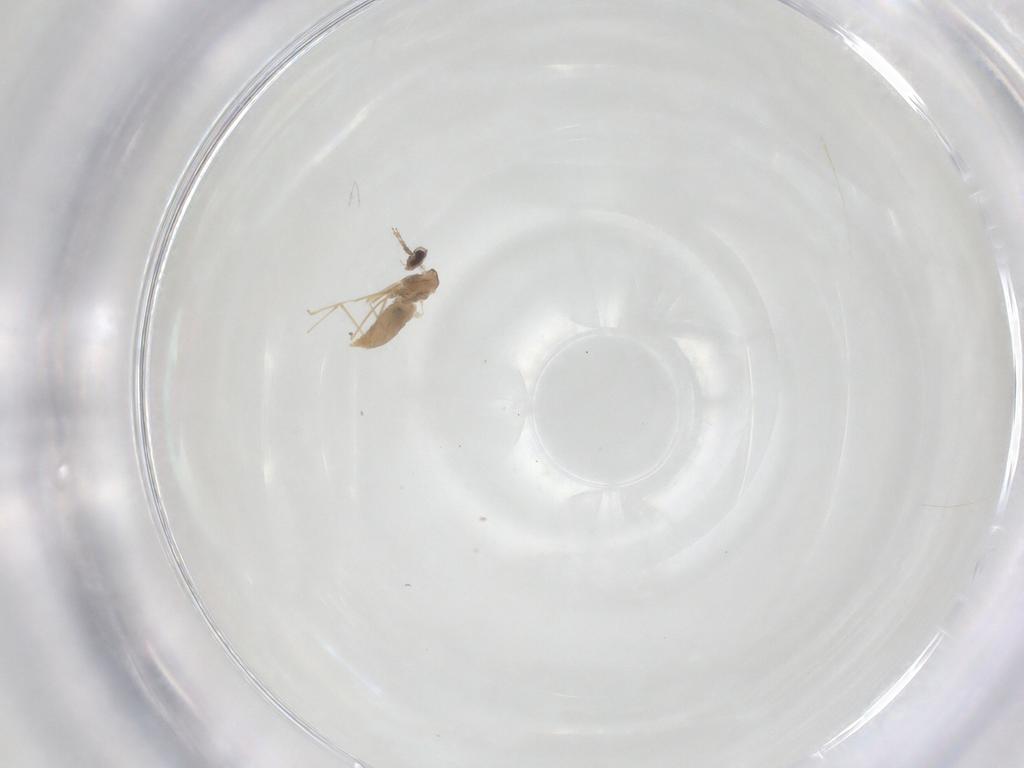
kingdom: Animalia
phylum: Arthropoda
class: Insecta
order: Diptera
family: Cecidomyiidae
